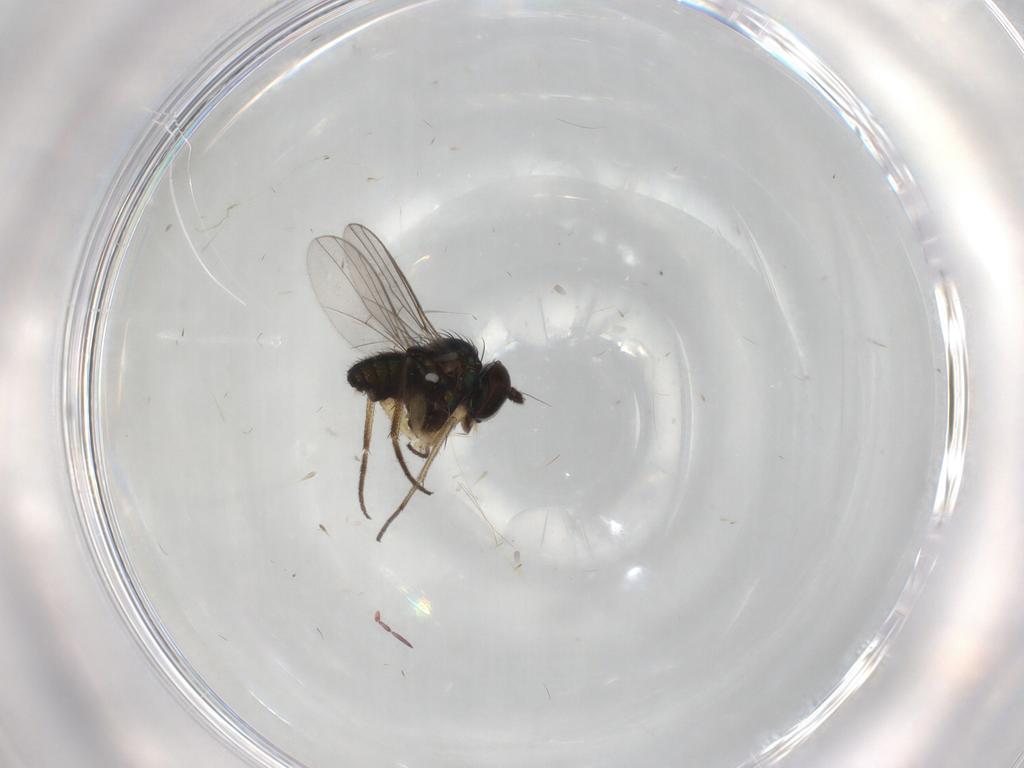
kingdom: Animalia
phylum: Arthropoda
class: Insecta
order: Diptera
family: Dolichopodidae
